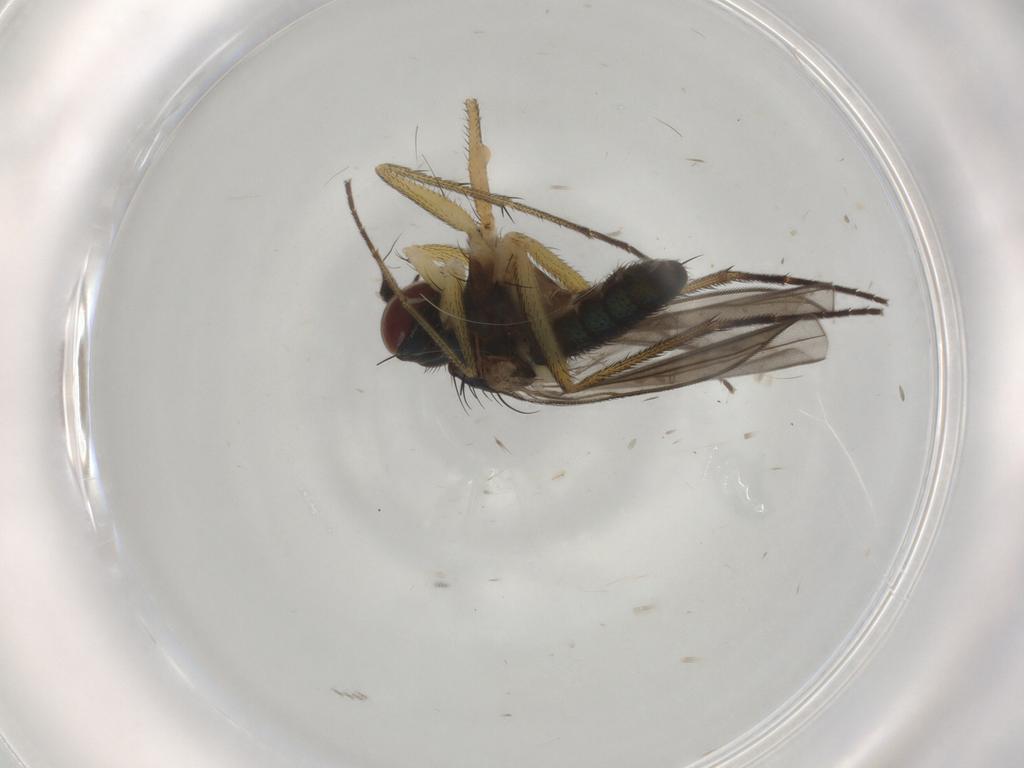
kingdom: Animalia
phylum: Arthropoda
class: Insecta
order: Diptera
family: Dolichopodidae
